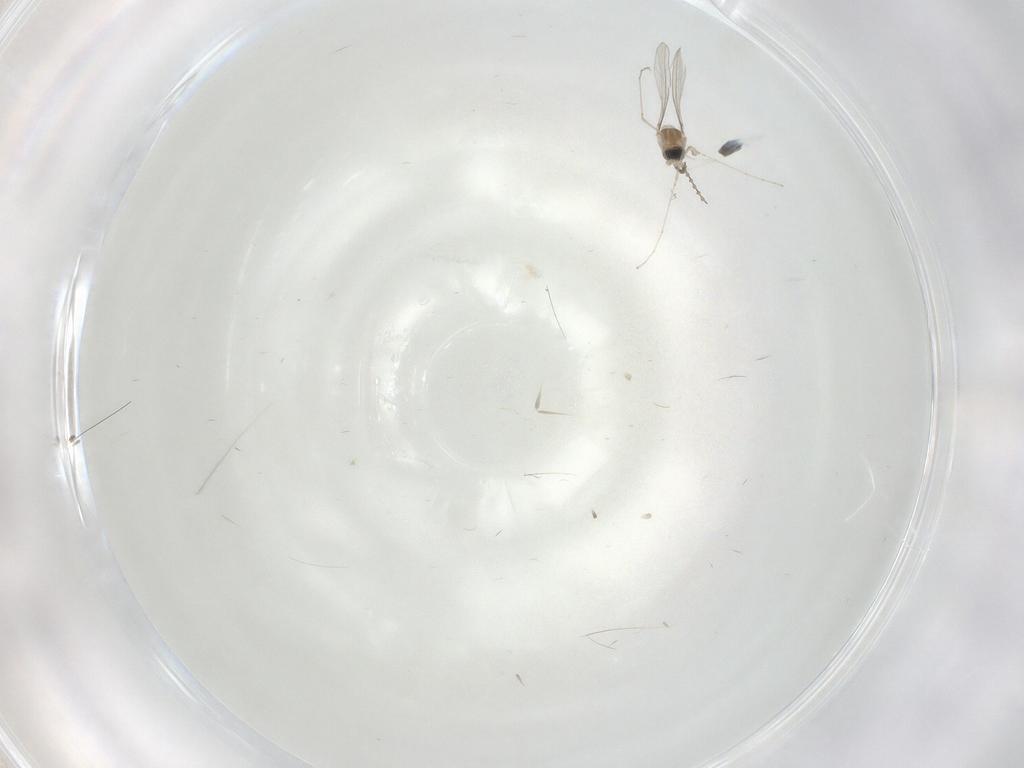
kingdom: Animalia
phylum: Arthropoda
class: Insecta
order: Diptera
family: Cecidomyiidae
